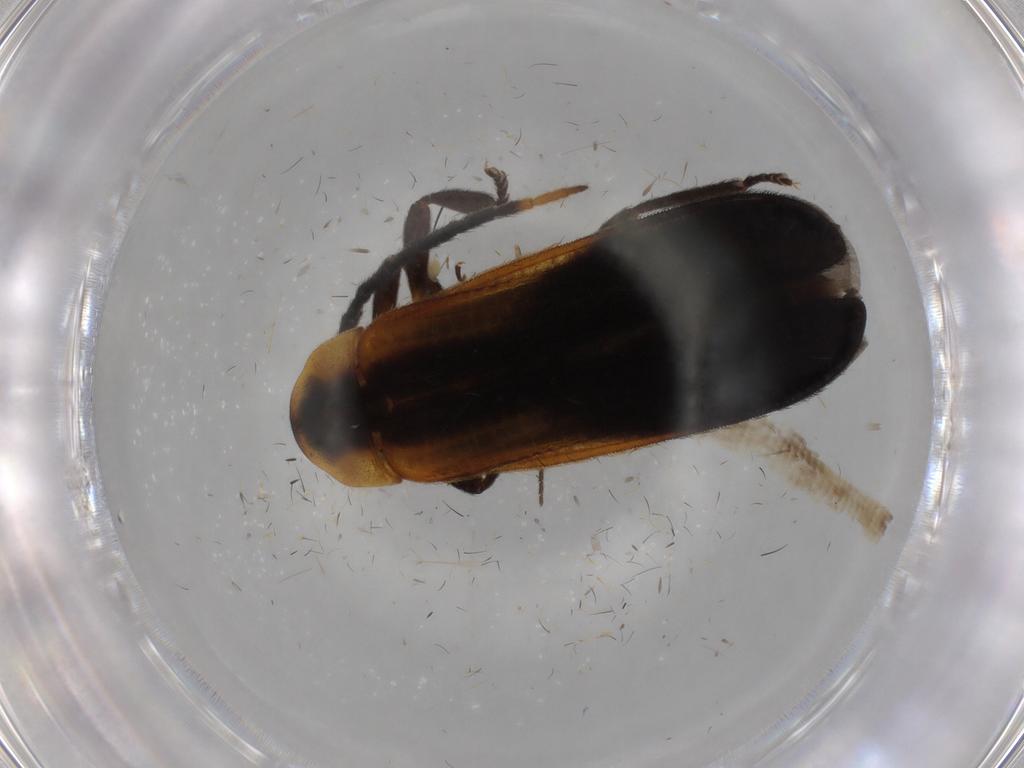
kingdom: Animalia
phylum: Arthropoda
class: Insecta
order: Coleoptera
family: Lycidae
